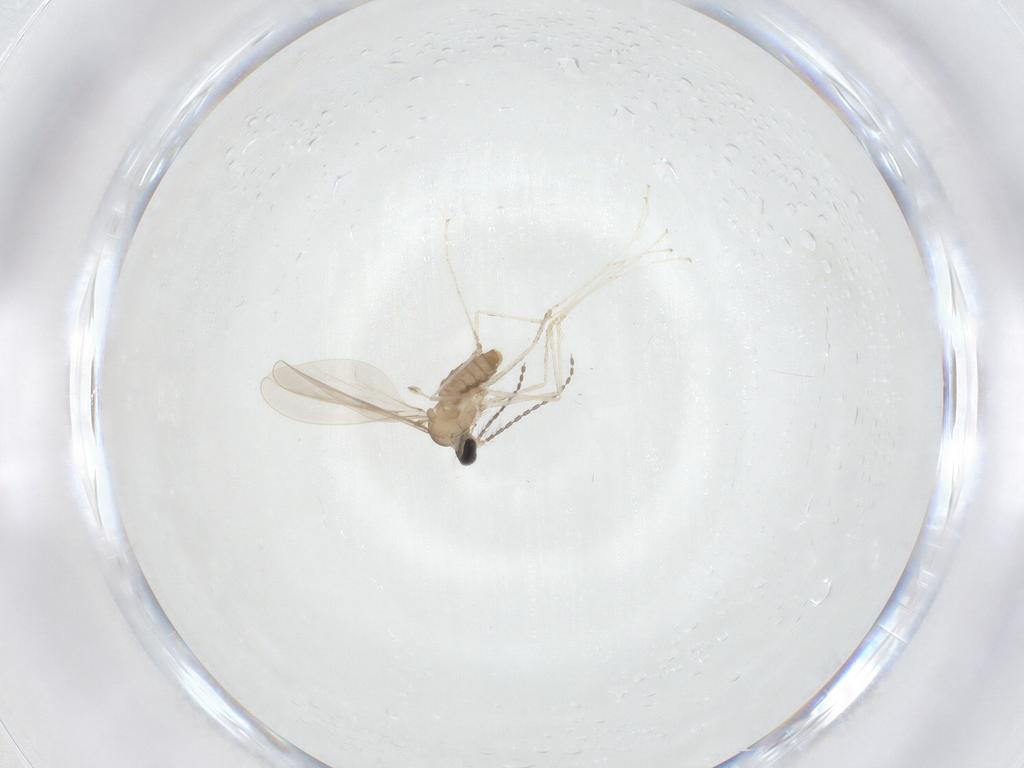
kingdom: Animalia
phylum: Arthropoda
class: Insecta
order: Diptera
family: Cecidomyiidae
